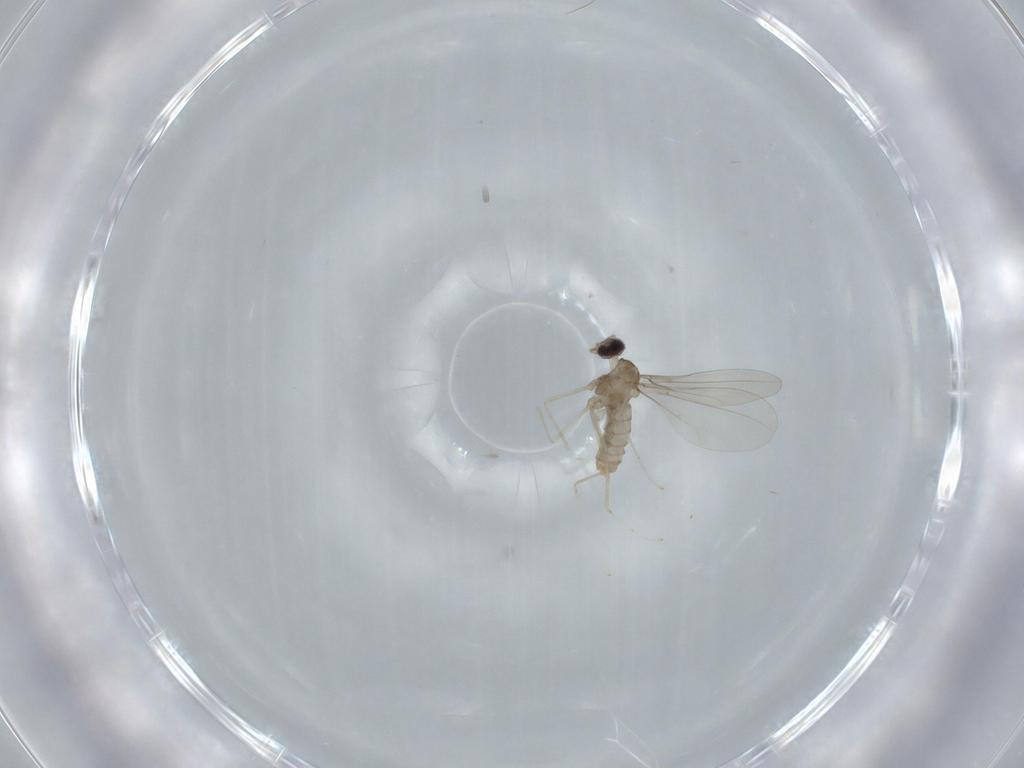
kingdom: Animalia
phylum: Arthropoda
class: Insecta
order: Diptera
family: Cecidomyiidae
